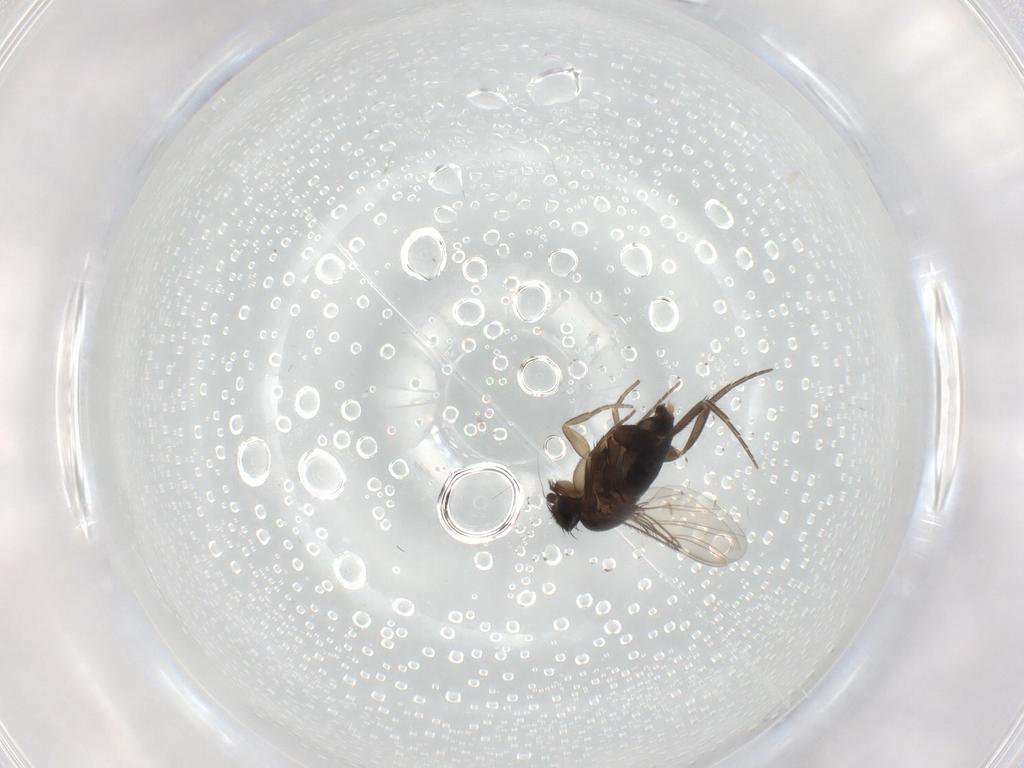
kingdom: Animalia
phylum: Arthropoda
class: Insecta
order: Diptera
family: Phoridae
